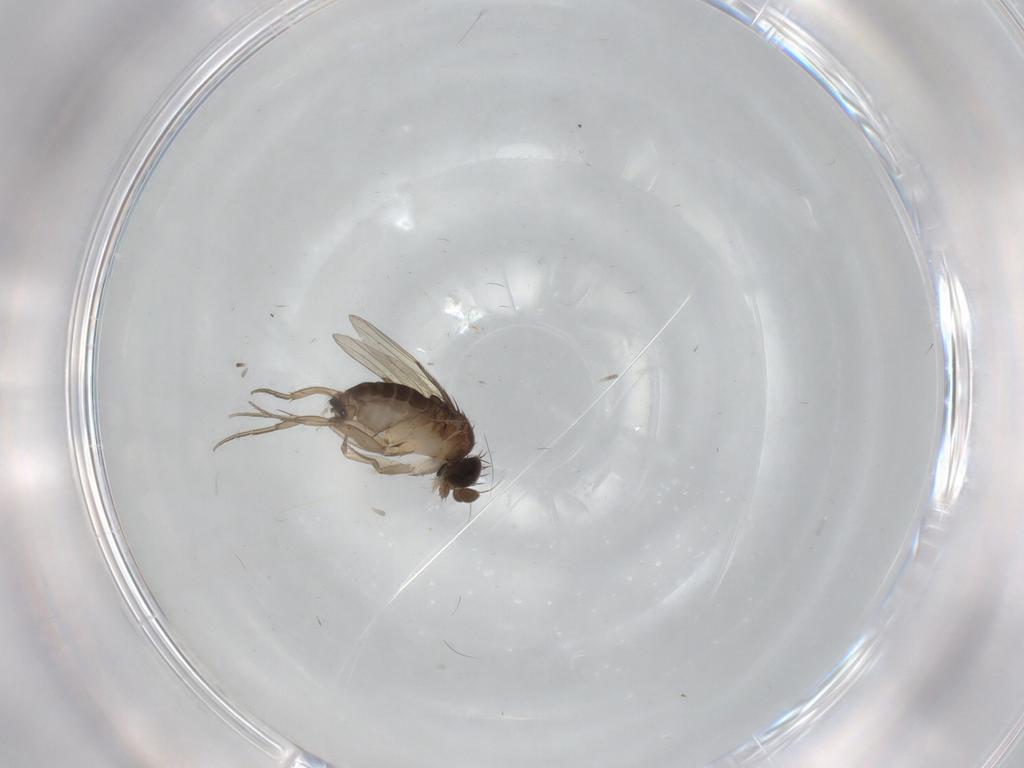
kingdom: Animalia
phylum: Arthropoda
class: Insecta
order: Diptera
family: Phoridae
